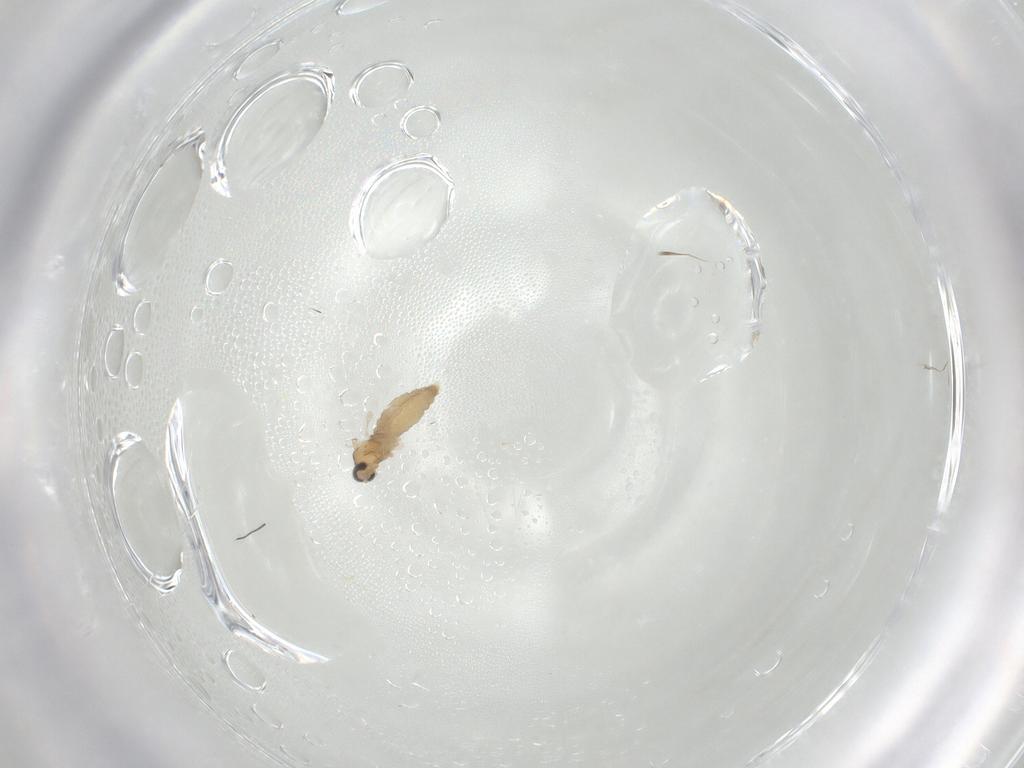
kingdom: Animalia
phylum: Arthropoda
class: Insecta
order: Diptera
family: Cecidomyiidae
